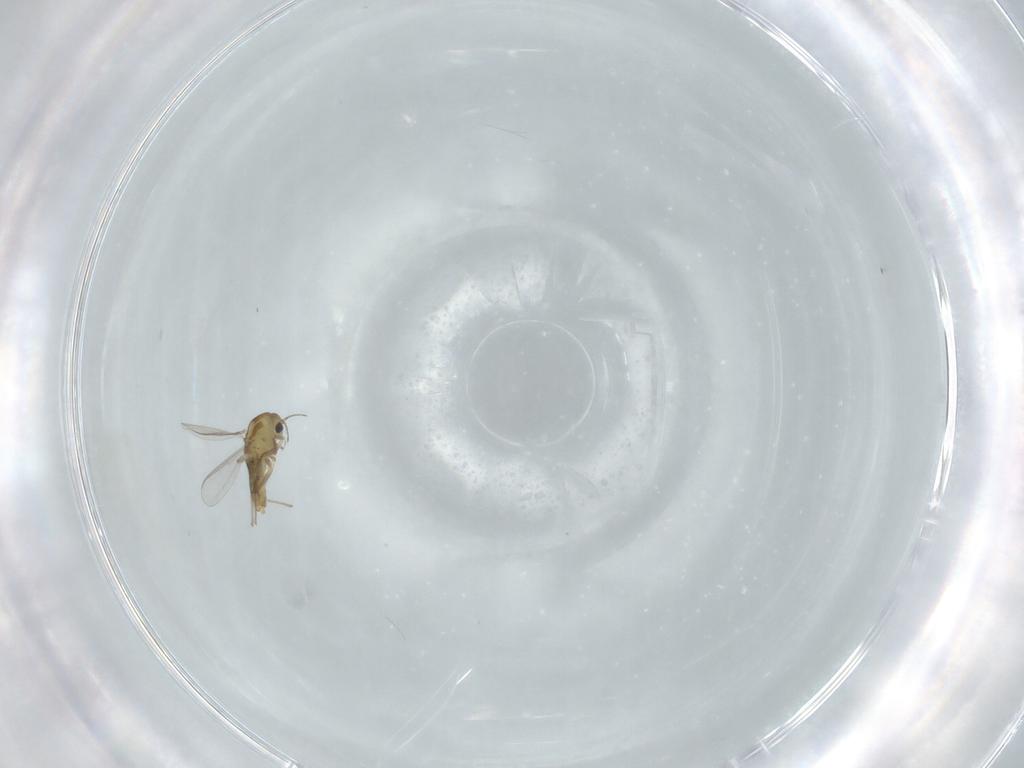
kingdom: Animalia
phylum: Arthropoda
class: Insecta
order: Diptera
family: Chironomidae
